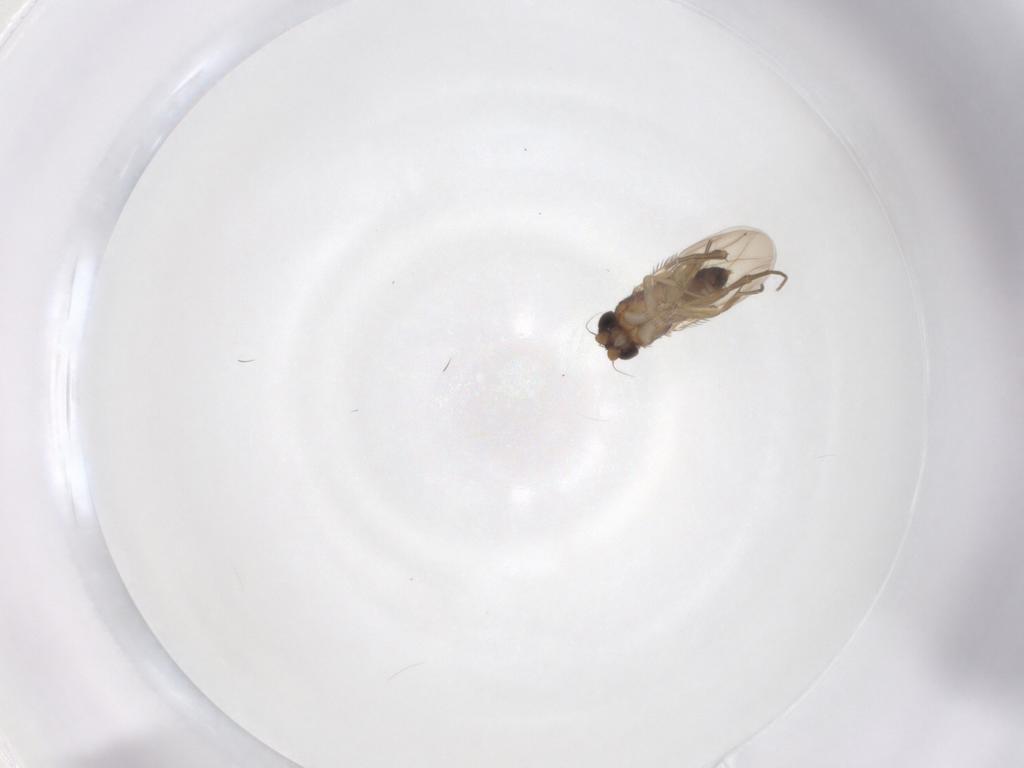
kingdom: Animalia
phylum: Arthropoda
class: Insecta
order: Diptera
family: Phoridae
